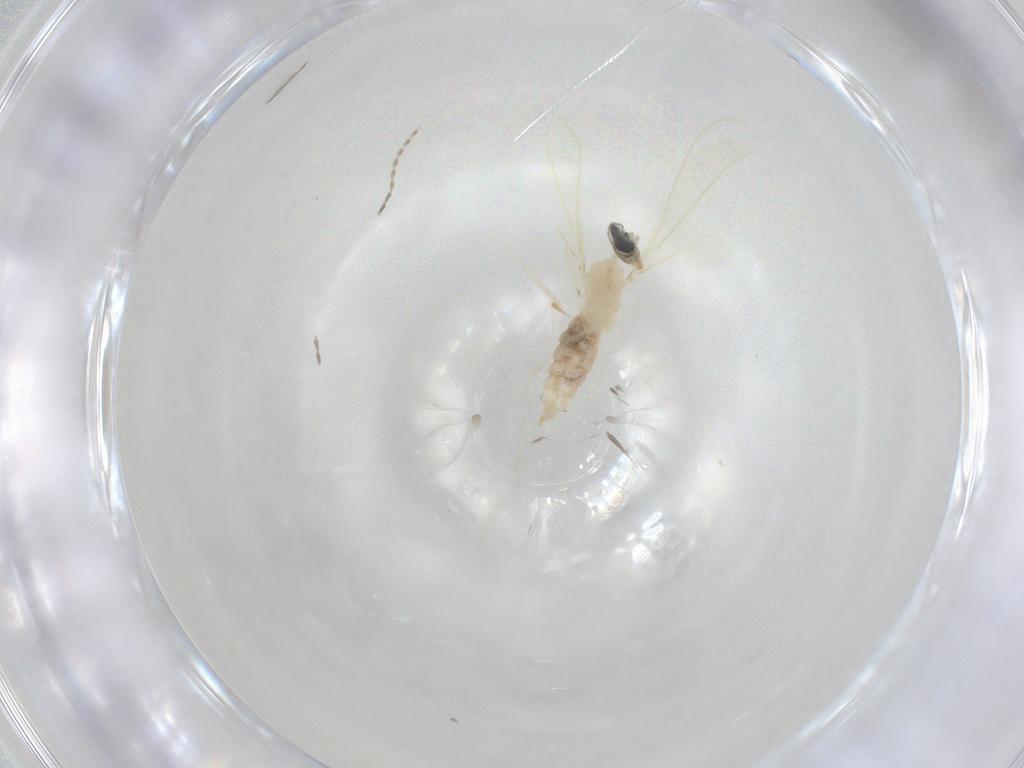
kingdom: Animalia
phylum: Arthropoda
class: Insecta
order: Diptera
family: Cecidomyiidae
